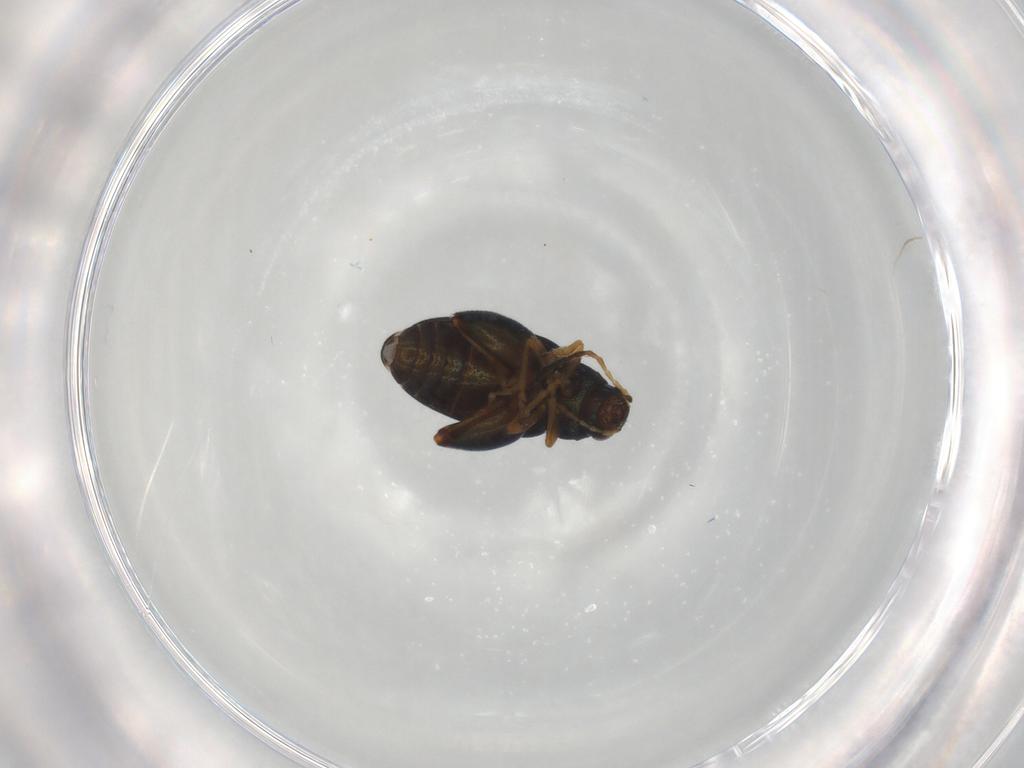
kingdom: Animalia
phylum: Arthropoda
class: Insecta
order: Coleoptera
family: Chrysomelidae
